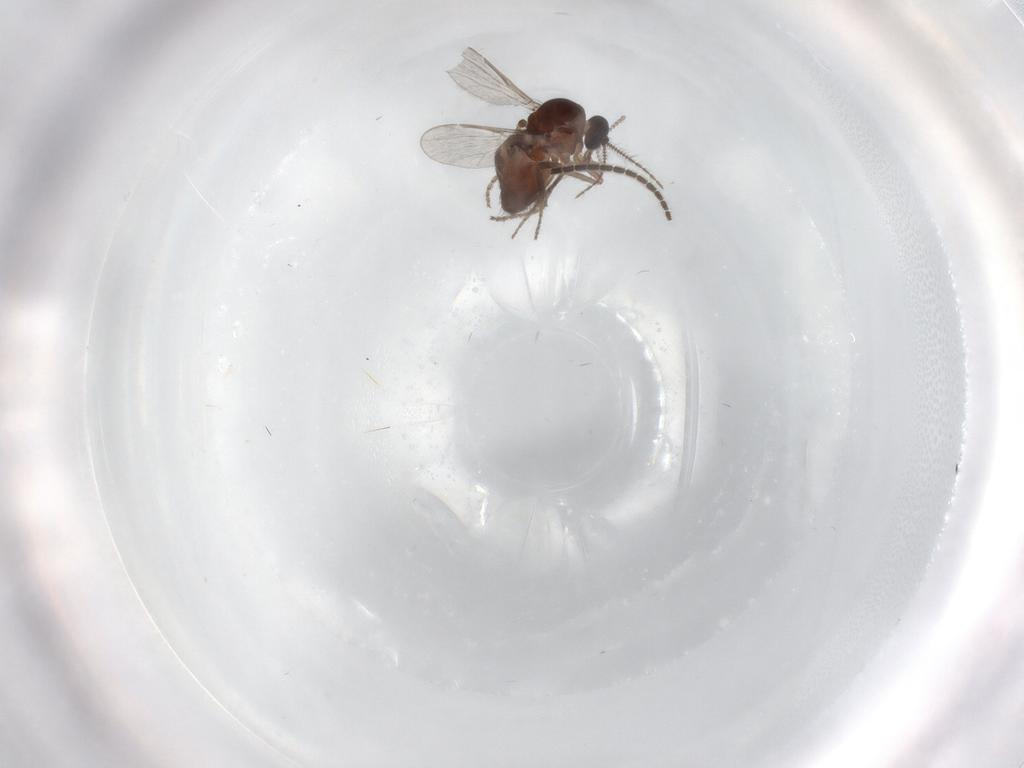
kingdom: Animalia
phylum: Arthropoda
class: Insecta
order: Diptera
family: Sciaridae
